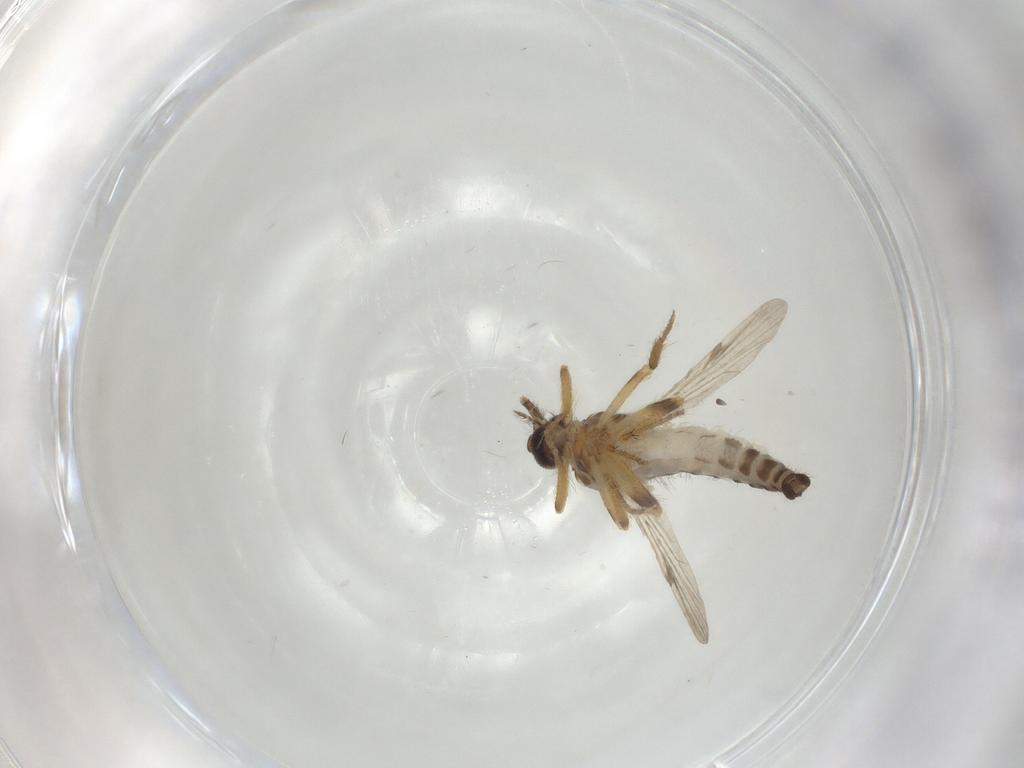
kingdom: Animalia
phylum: Arthropoda
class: Insecta
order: Diptera
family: Ceratopogonidae
